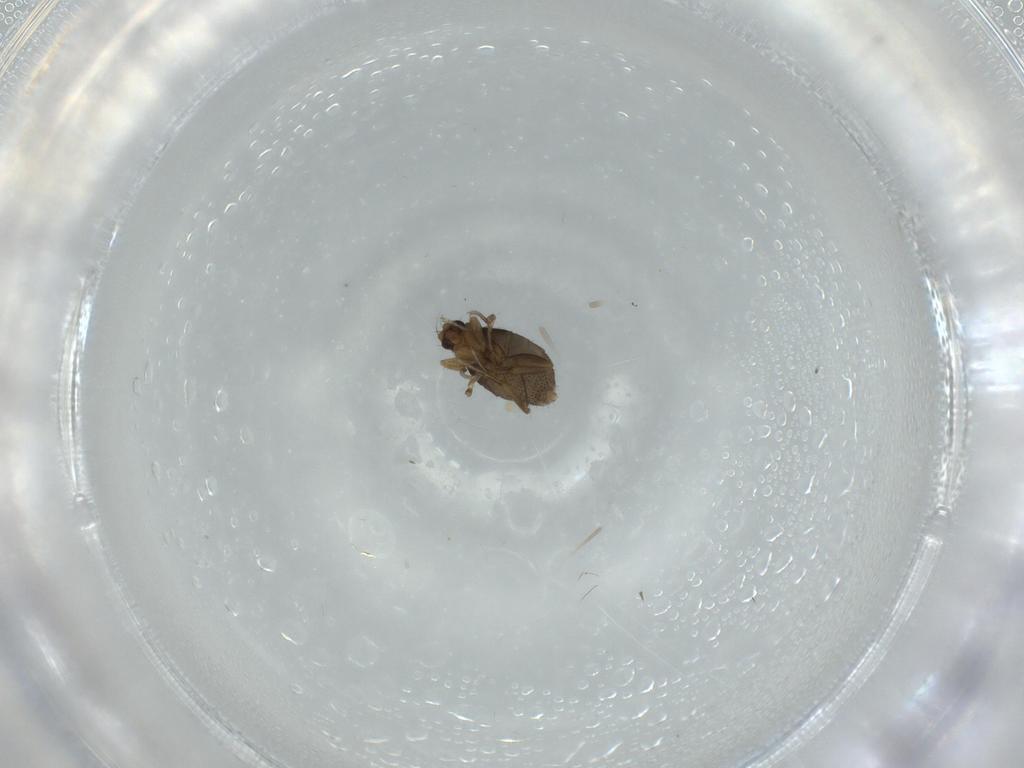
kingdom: Animalia
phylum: Arthropoda
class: Insecta
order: Diptera
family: Phoridae
